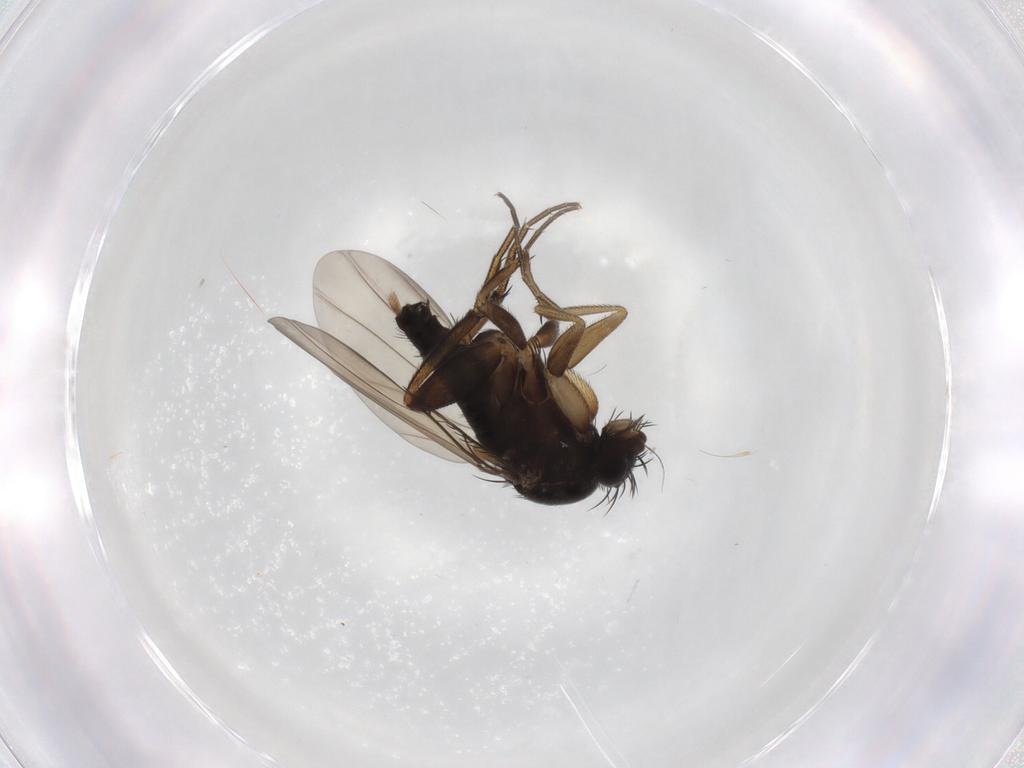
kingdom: Animalia
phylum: Arthropoda
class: Insecta
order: Diptera
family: Phoridae
